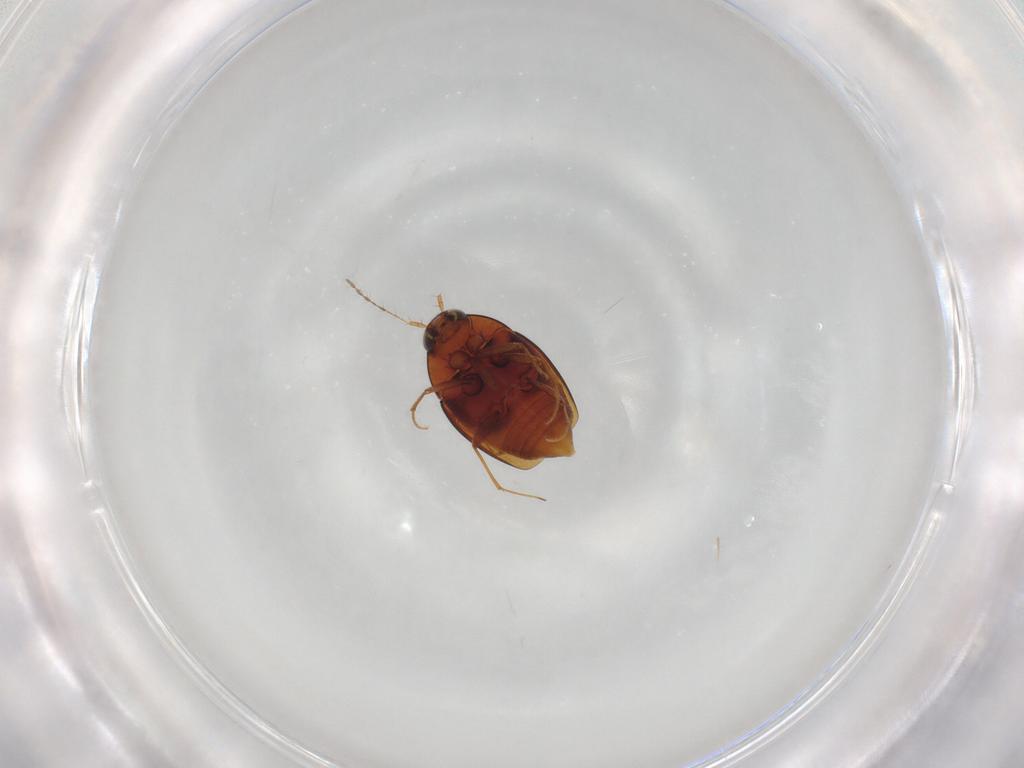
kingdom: Animalia
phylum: Arthropoda
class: Insecta
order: Coleoptera
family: Staphylinidae
